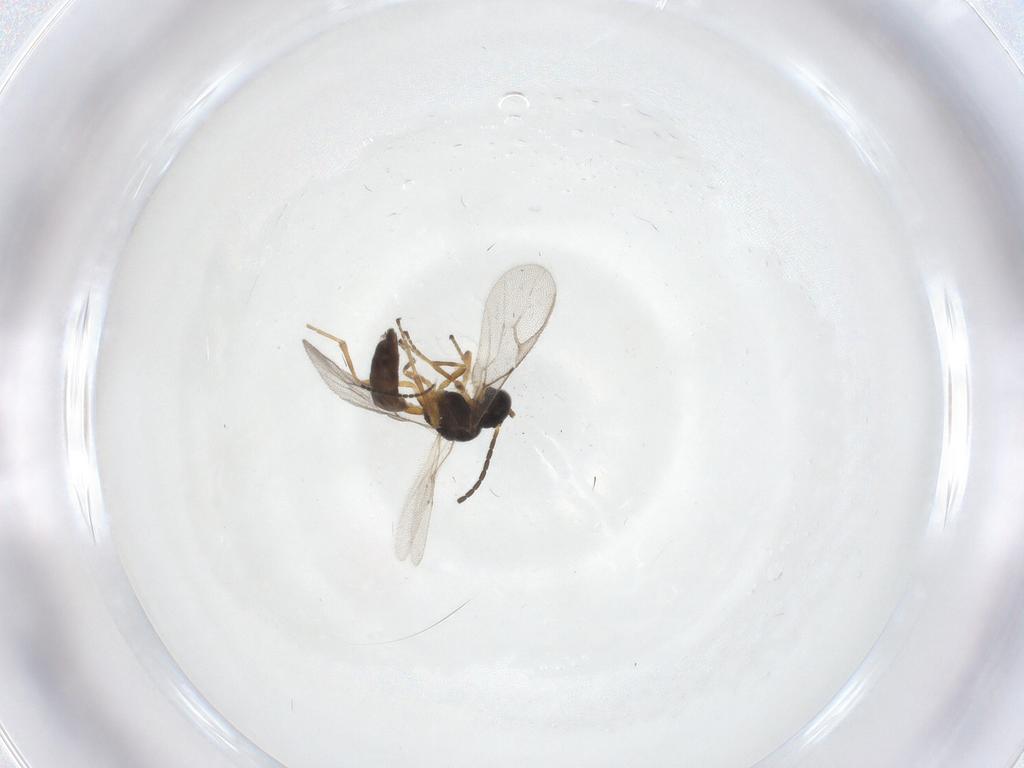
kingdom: Animalia
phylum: Arthropoda
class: Insecta
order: Hymenoptera
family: Braconidae
